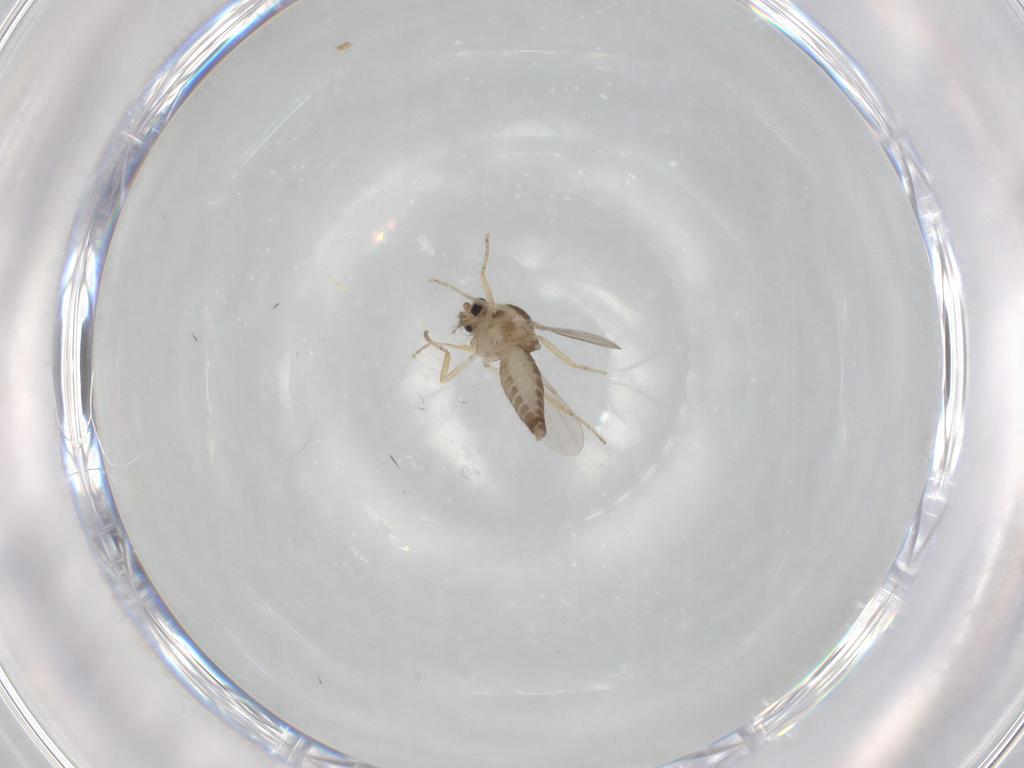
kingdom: Animalia
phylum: Arthropoda
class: Insecta
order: Diptera
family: Ceratopogonidae
